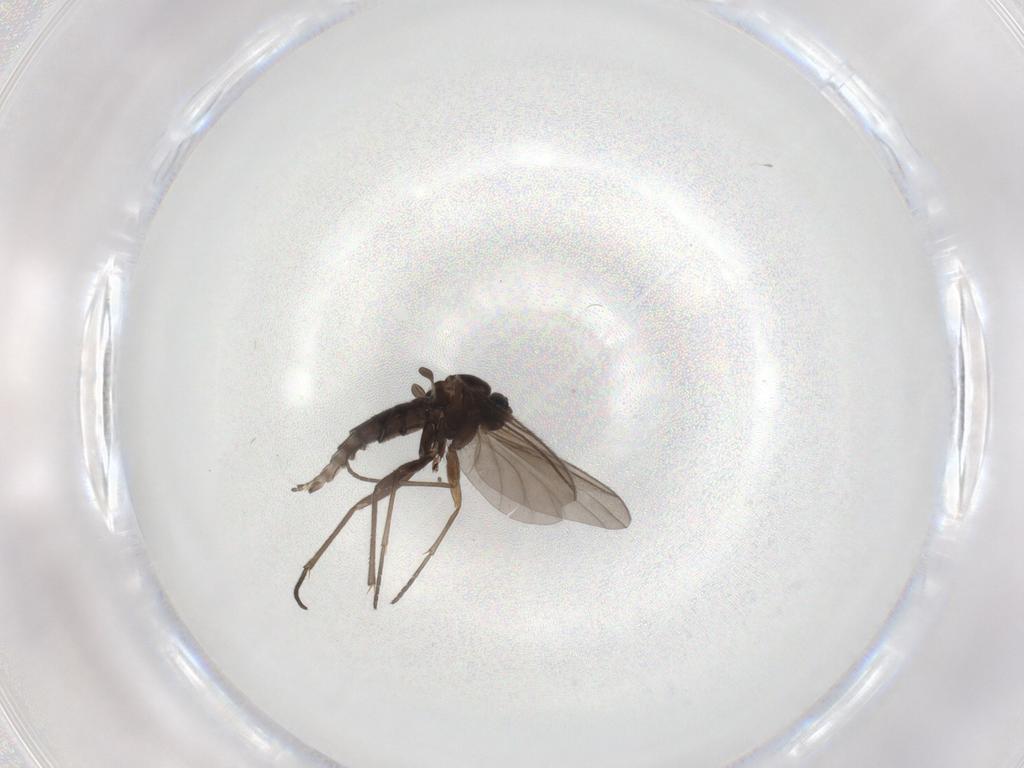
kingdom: Animalia
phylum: Arthropoda
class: Insecta
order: Diptera
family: Sciaridae
